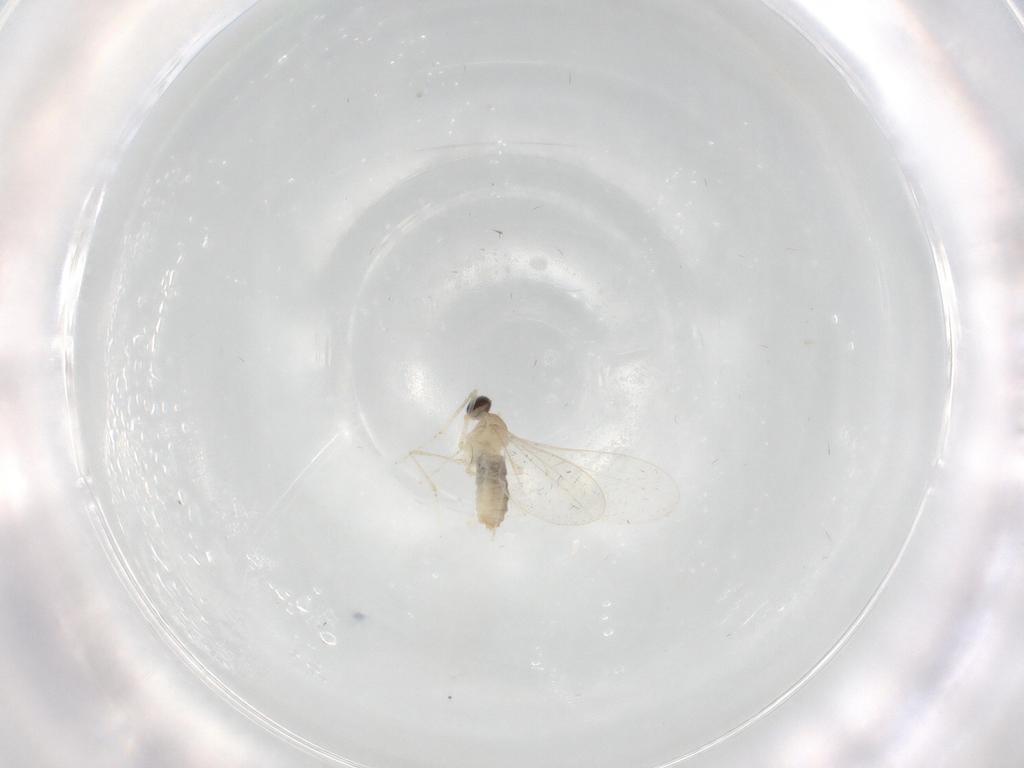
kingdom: Animalia
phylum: Arthropoda
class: Insecta
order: Diptera
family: Cecidomyiidae
